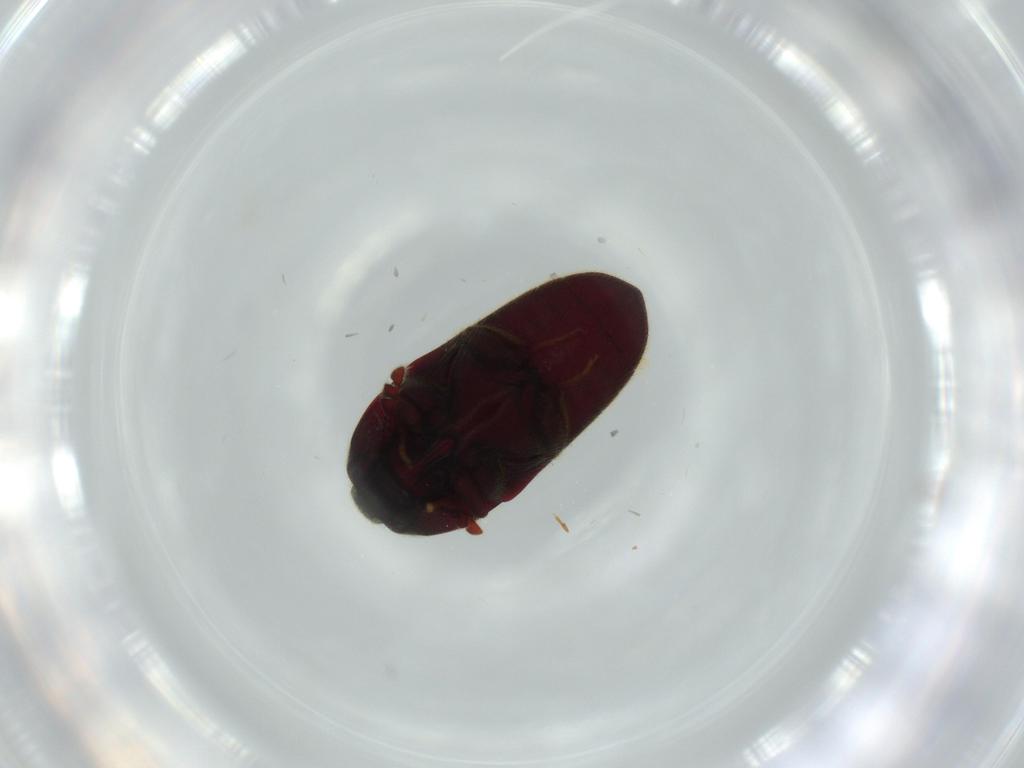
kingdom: Animalia
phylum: Arthropoda
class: Insecta
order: Coleoptera
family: Throscidae
